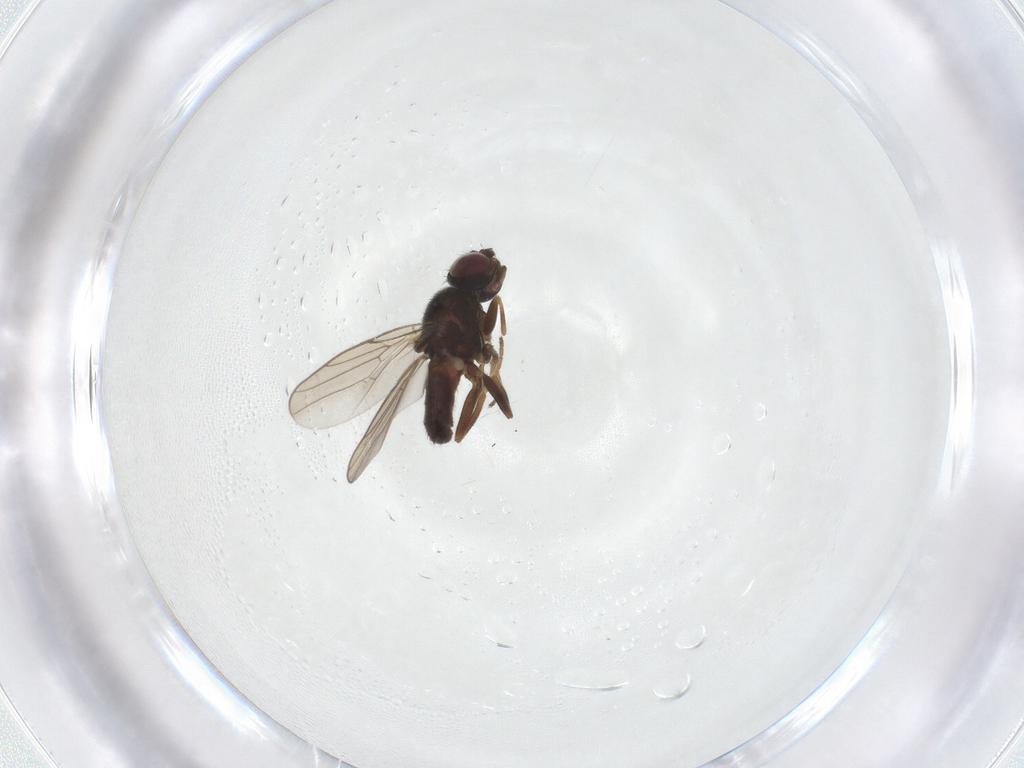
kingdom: Animalia
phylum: Arthropoda
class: Insecta
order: Diptera
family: Chloropidae
